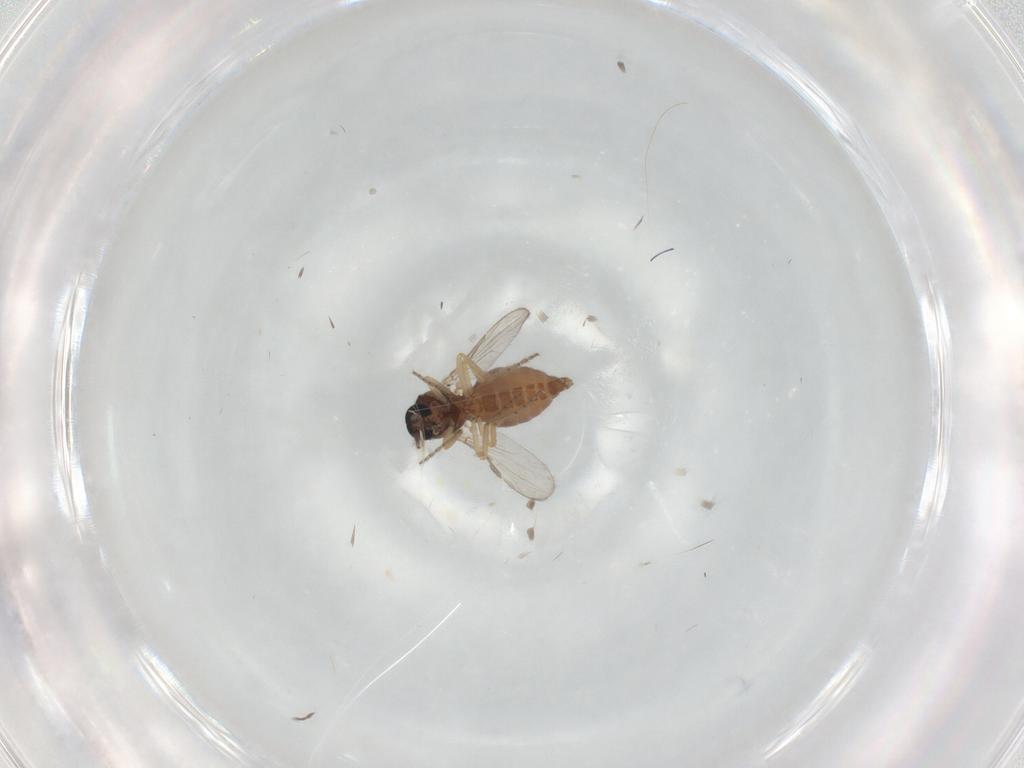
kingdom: Animalia
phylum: Arthropoda
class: Insecta
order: Diptera
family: Ceratopogonidae
